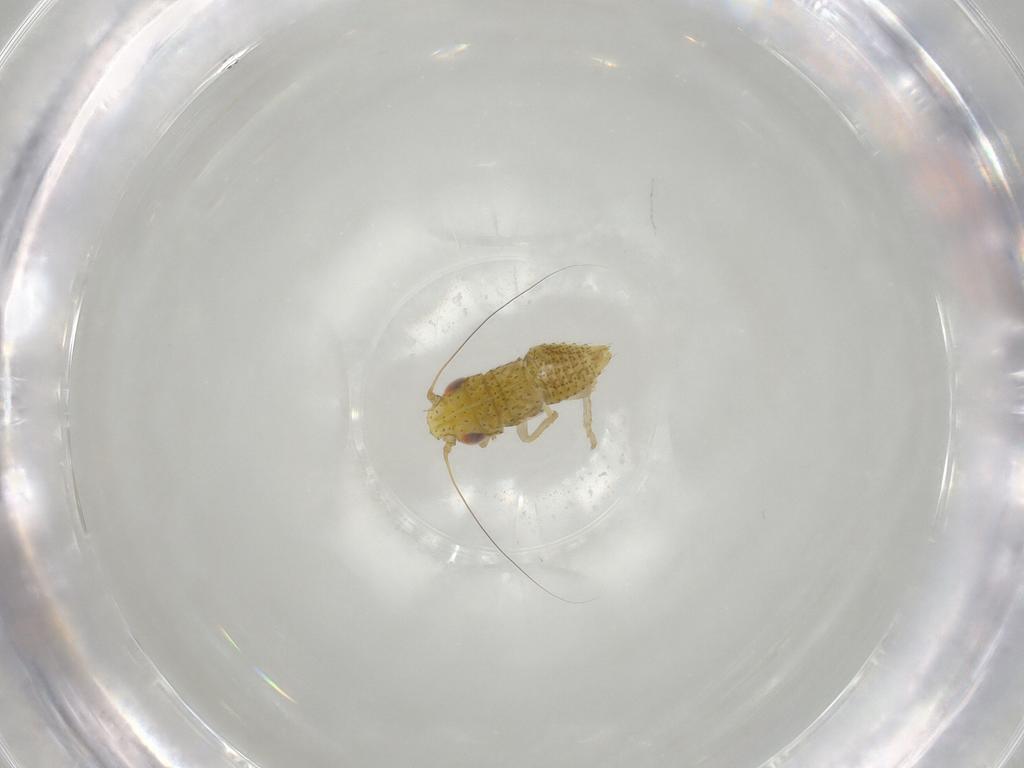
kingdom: Animalia
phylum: Arthropoda
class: Insecta
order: Hemiptera
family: Cicadellidae
